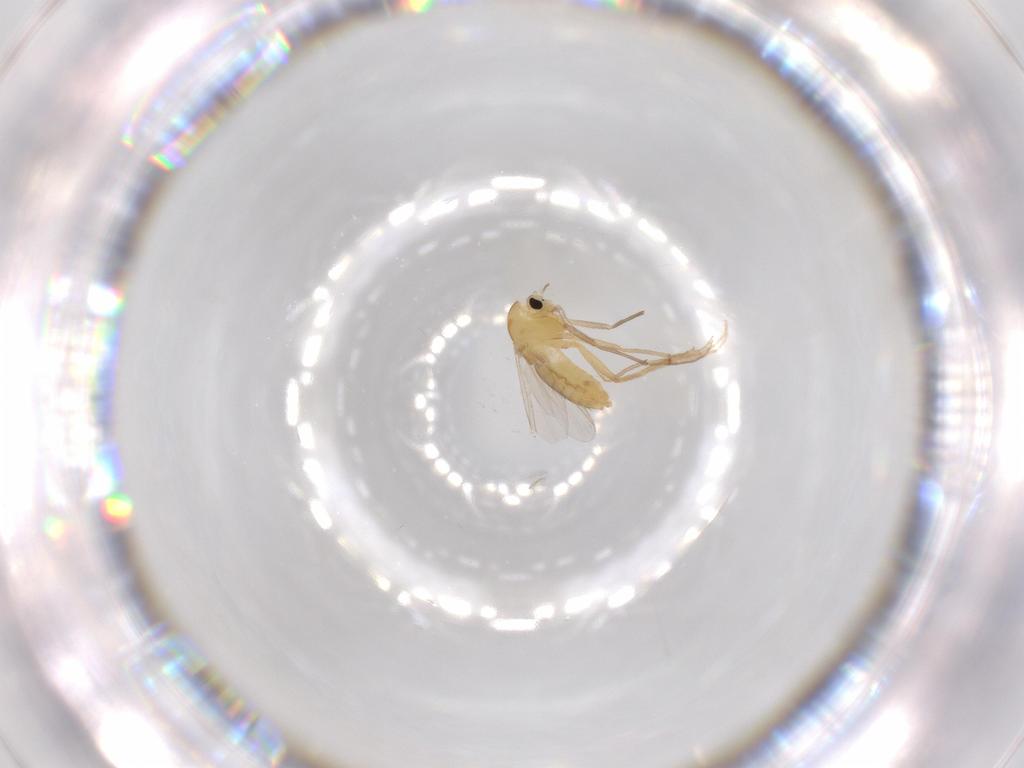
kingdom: Animalia
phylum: Arthropoda
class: Insecta
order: Diptera
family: Chironomidae
